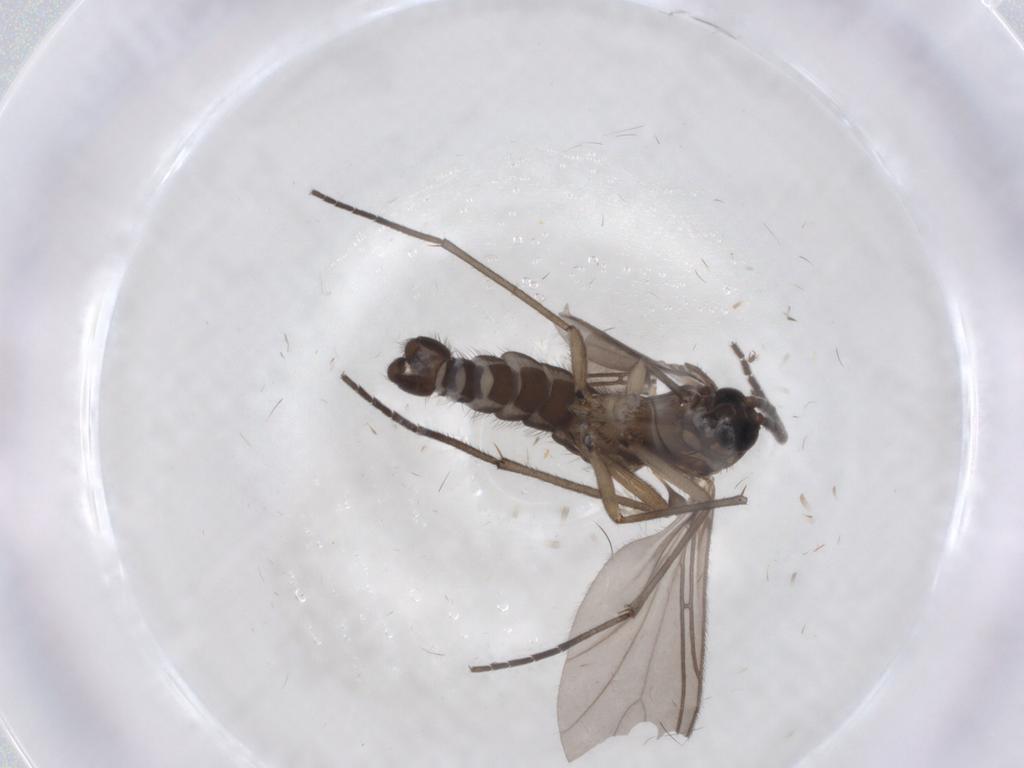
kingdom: Animalia
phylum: Arthropoda
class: Insecta
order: Diptera
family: Sciaridae
